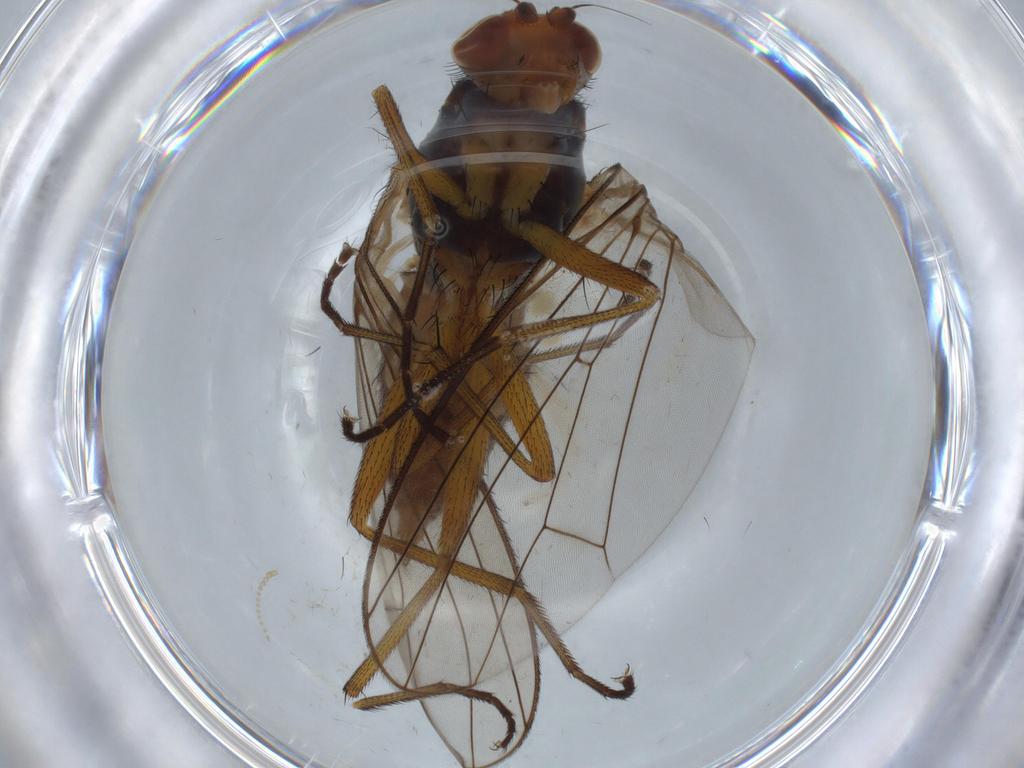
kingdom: Animalia
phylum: Arthropoda
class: Insecta
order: Diptera
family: Heleomyzidae
